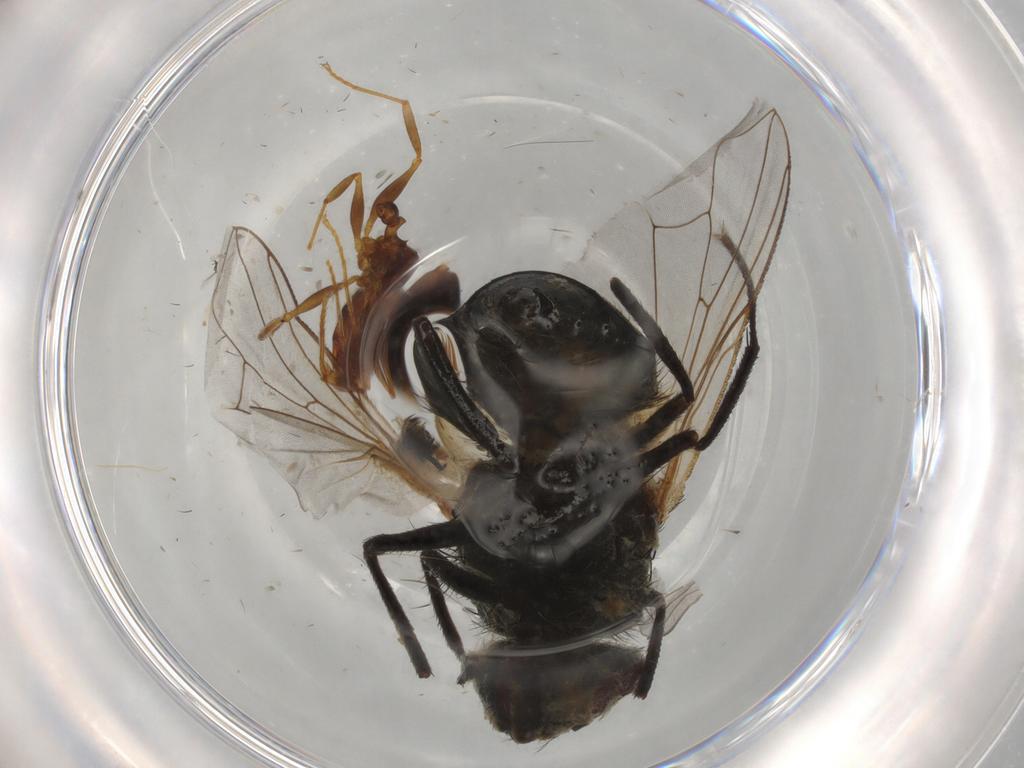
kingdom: Animalia
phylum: Arthropoda
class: Insecta
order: Diptera
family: Muscidae
